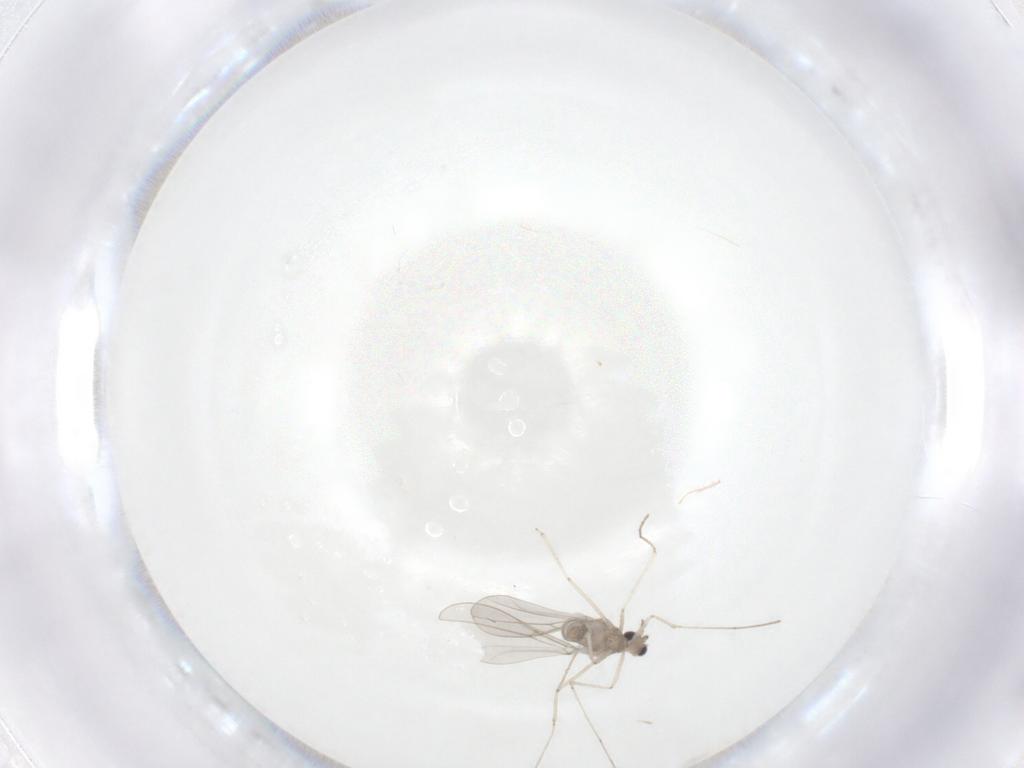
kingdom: Animalia
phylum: Arthropoda
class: Insecta
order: Diptera
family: Cecidomyiidae
